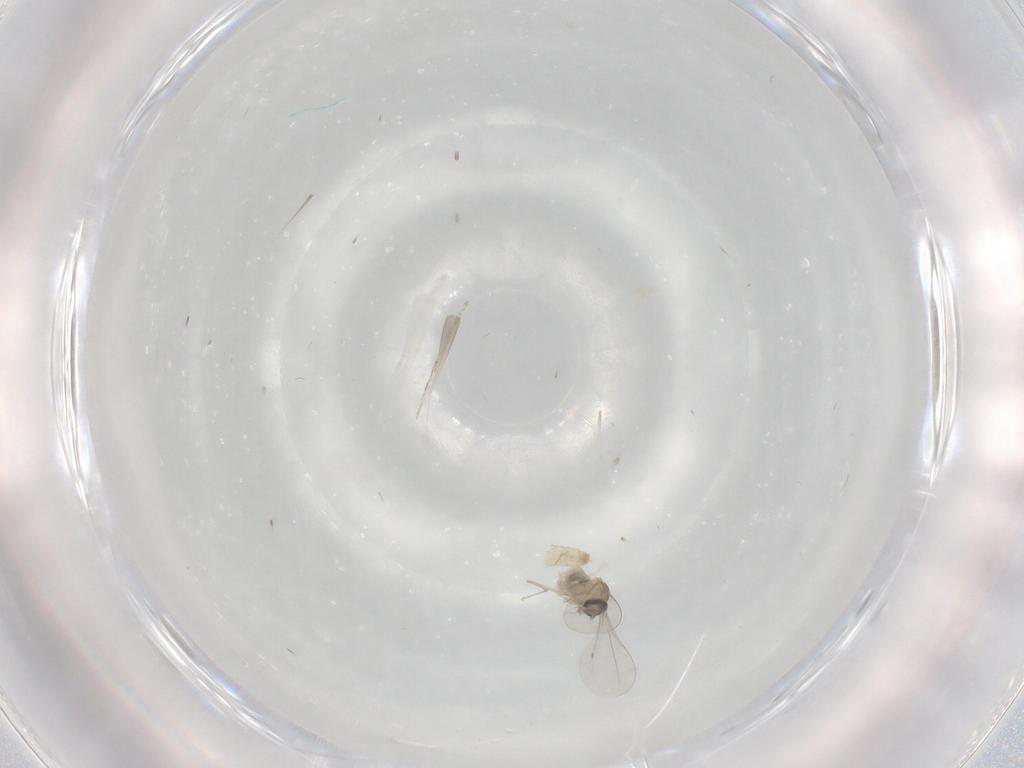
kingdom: Animalia
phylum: Arthropoda
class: Insecta
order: Diptera
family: Cecidomyiidae
